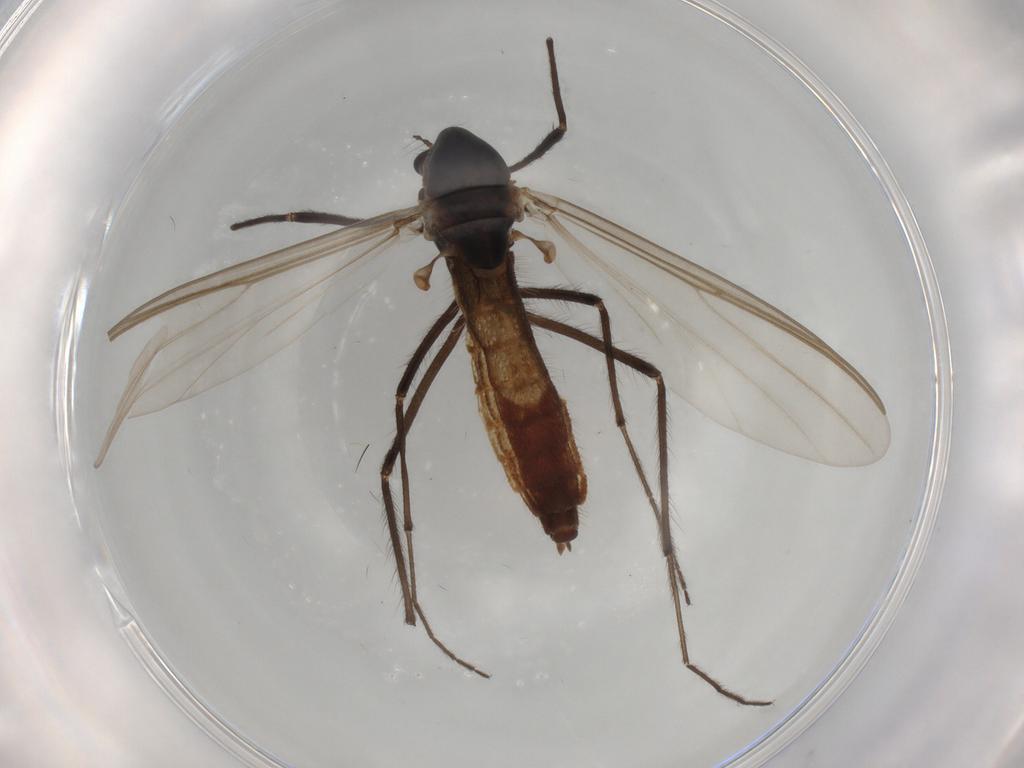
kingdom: Animalia
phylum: Arthropoda
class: Insecta
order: Diptera
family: Chironomidae
